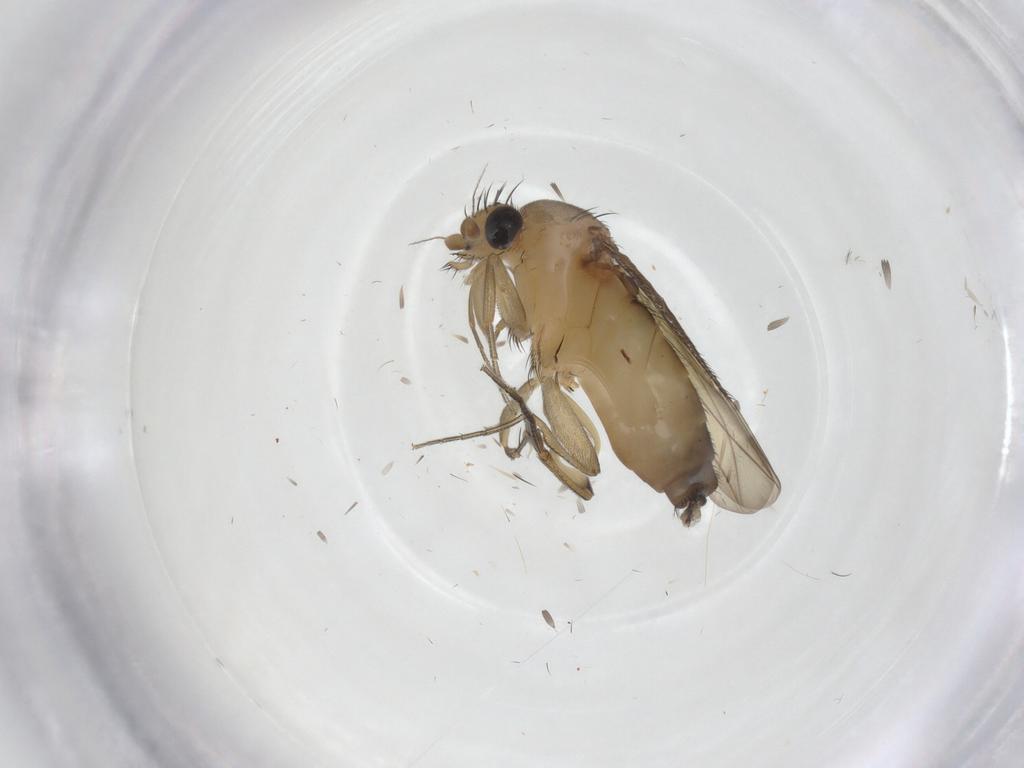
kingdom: Animalia
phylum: Arthropoda
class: Insecta
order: Diptera
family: Phoridae
